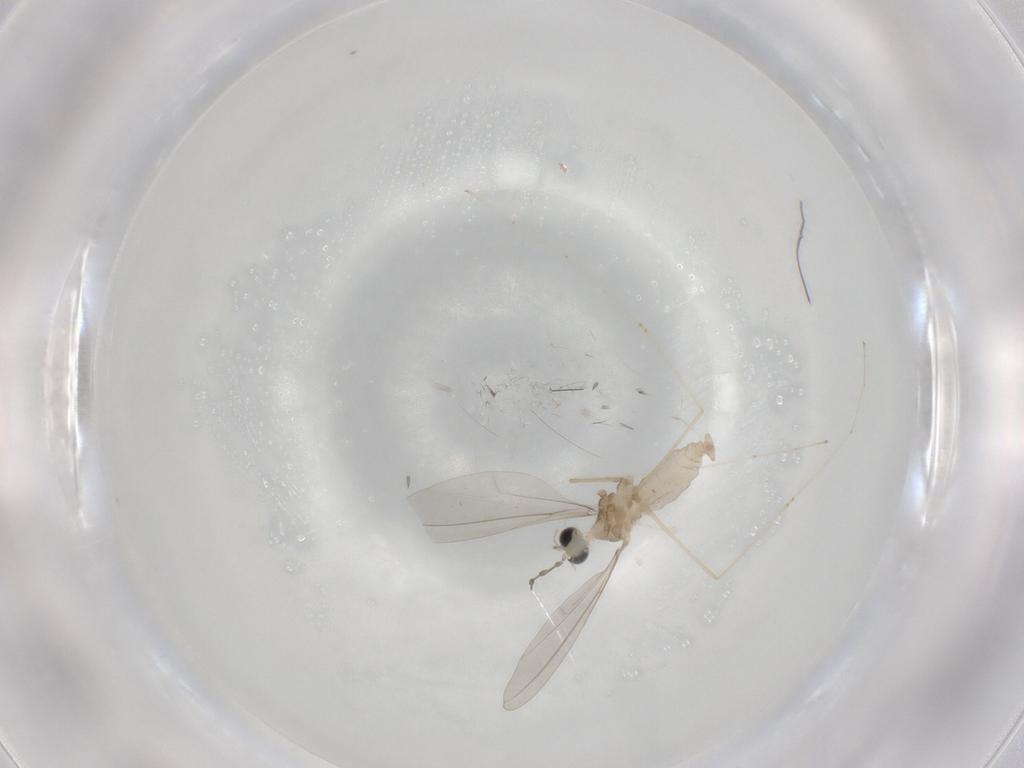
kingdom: Animalia
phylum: Arthropoda
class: Insecta
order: Diptera
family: Cecidomyiidae
